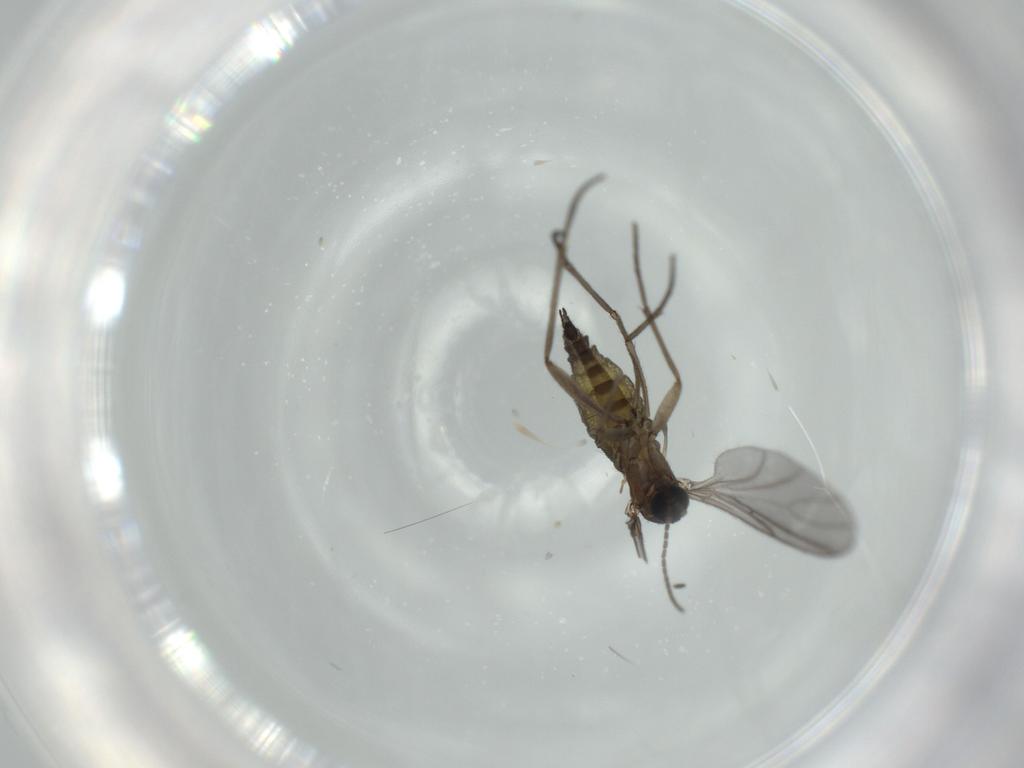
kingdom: Animalia
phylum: Arthropoda
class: Insecta
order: Diptera
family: Sciaridae
